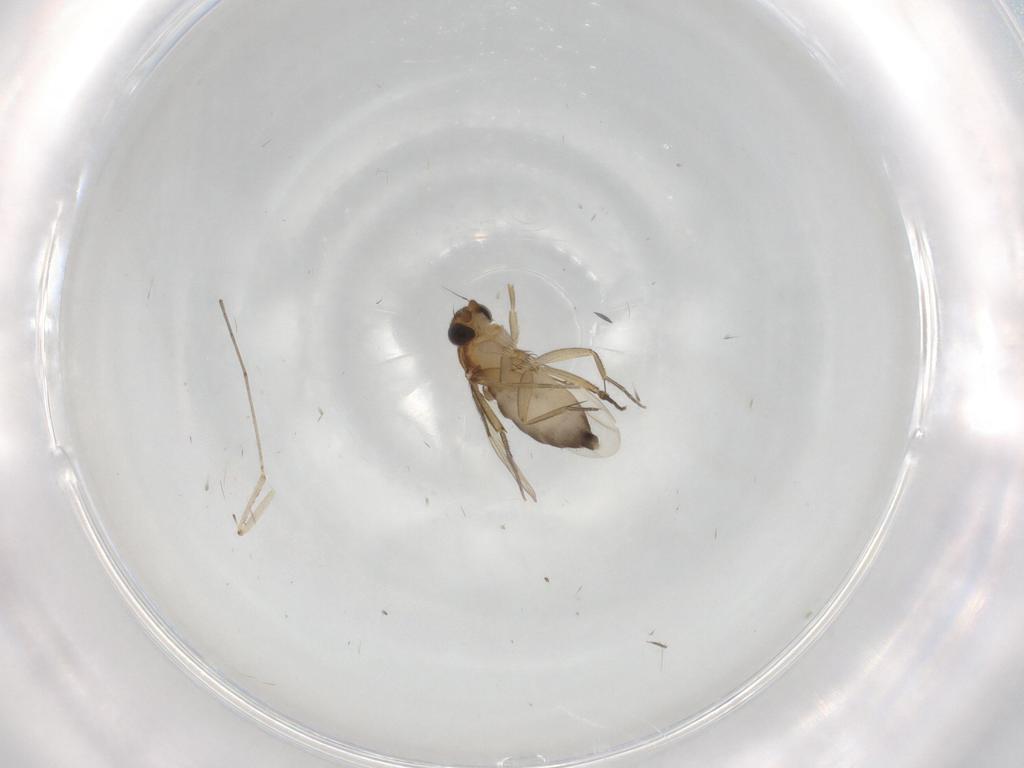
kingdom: Animalia
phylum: Arthropoda
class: Insecta
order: Diptera
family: Phoridae
